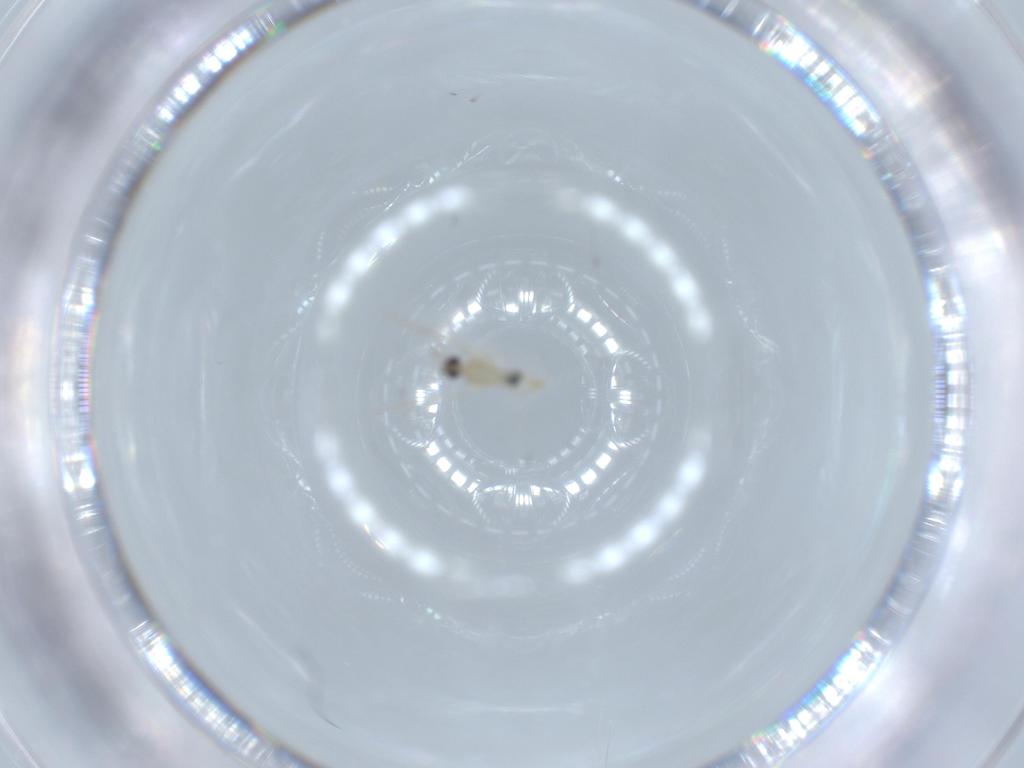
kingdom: Animalia
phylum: Arthropoda
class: Insecta
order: Diptera
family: Cecidomyiidae
